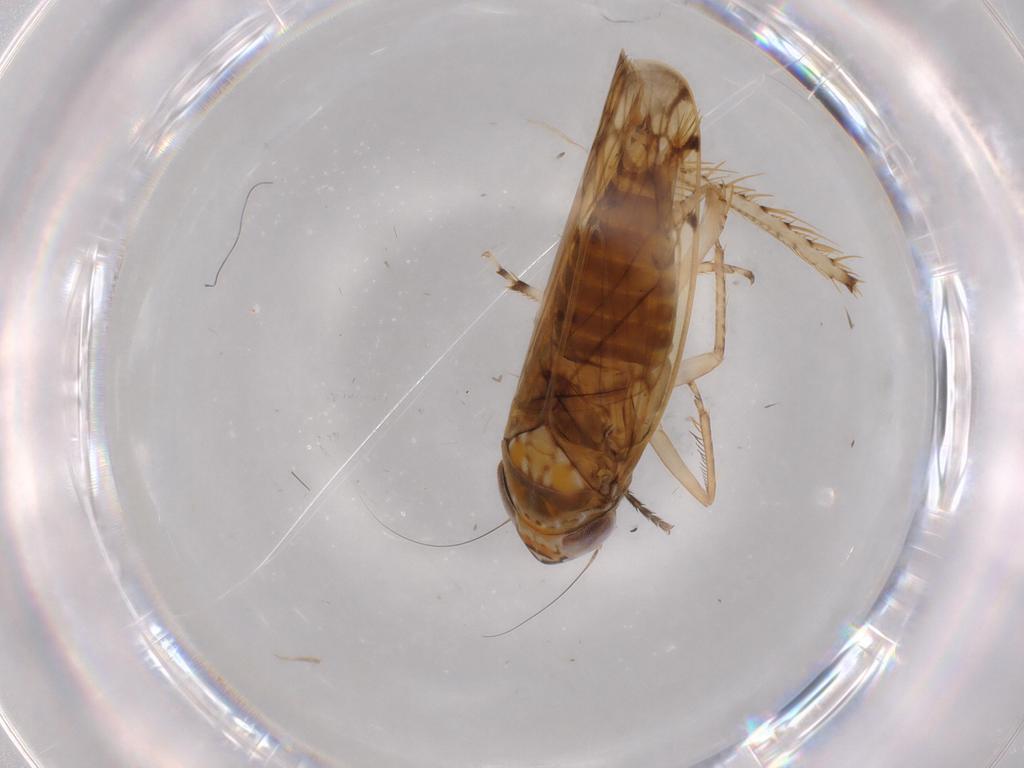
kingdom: Animalia
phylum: Arthropoda
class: Insecta
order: Hemiptera
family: Cicadellidae
